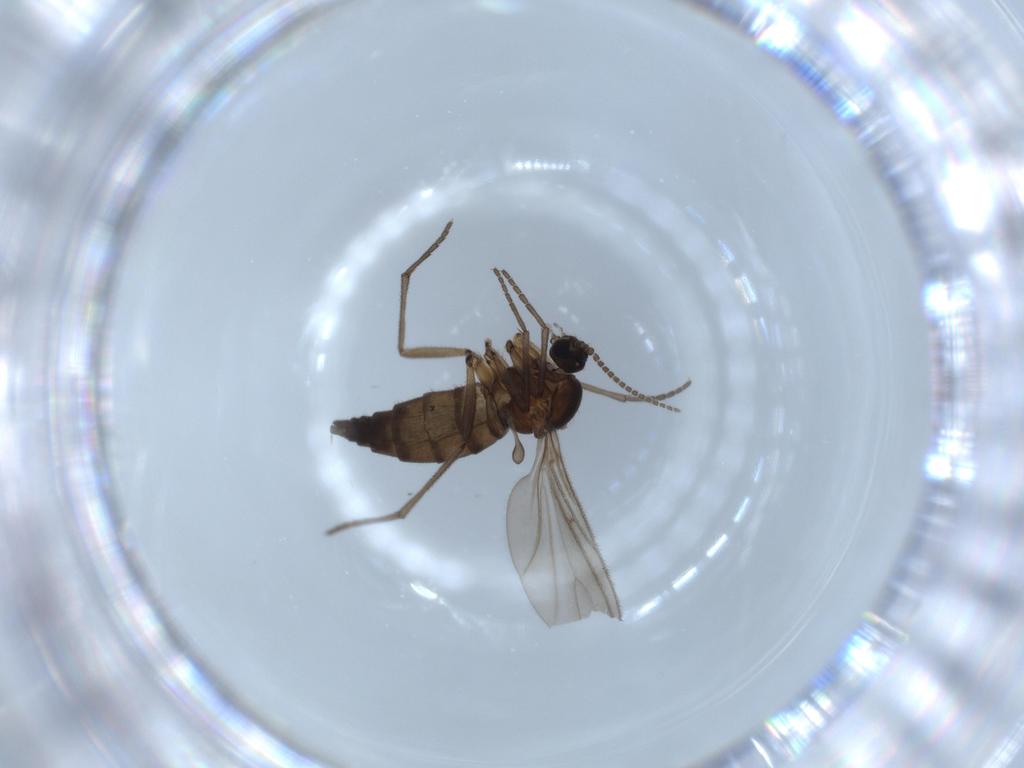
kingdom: Animalia
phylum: Arthropoda
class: Insecta
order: Diptera
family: Sciaridae
